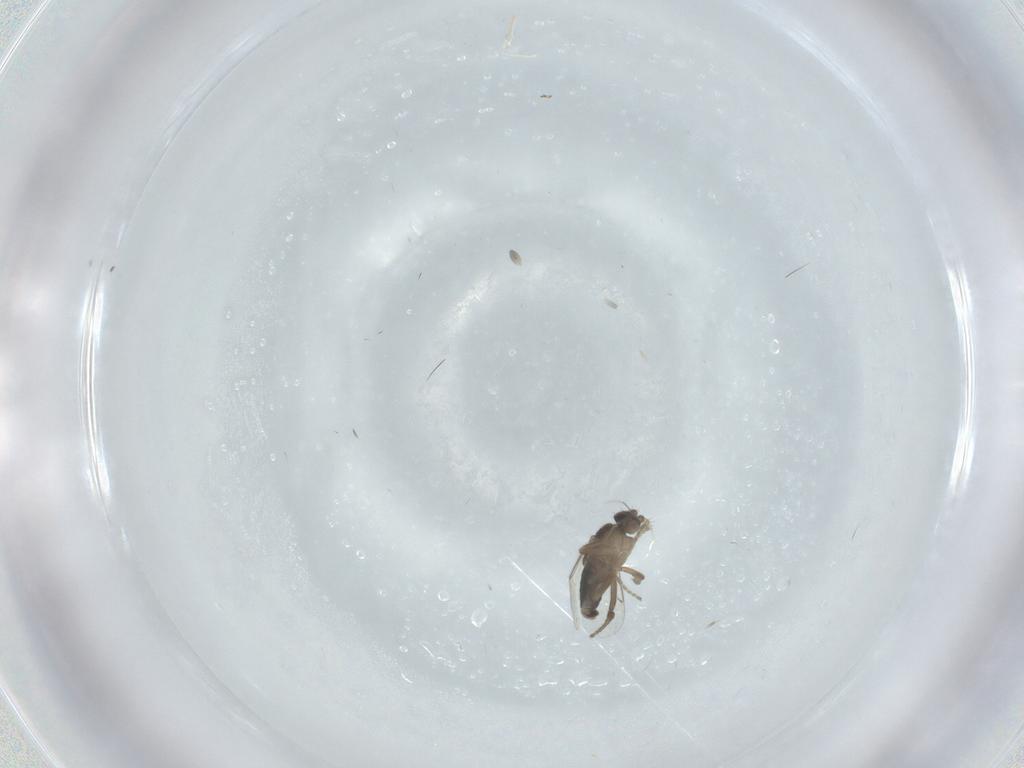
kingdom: Animalia
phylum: Arthropoda
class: Insecta
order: Diptera
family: Phoridae
